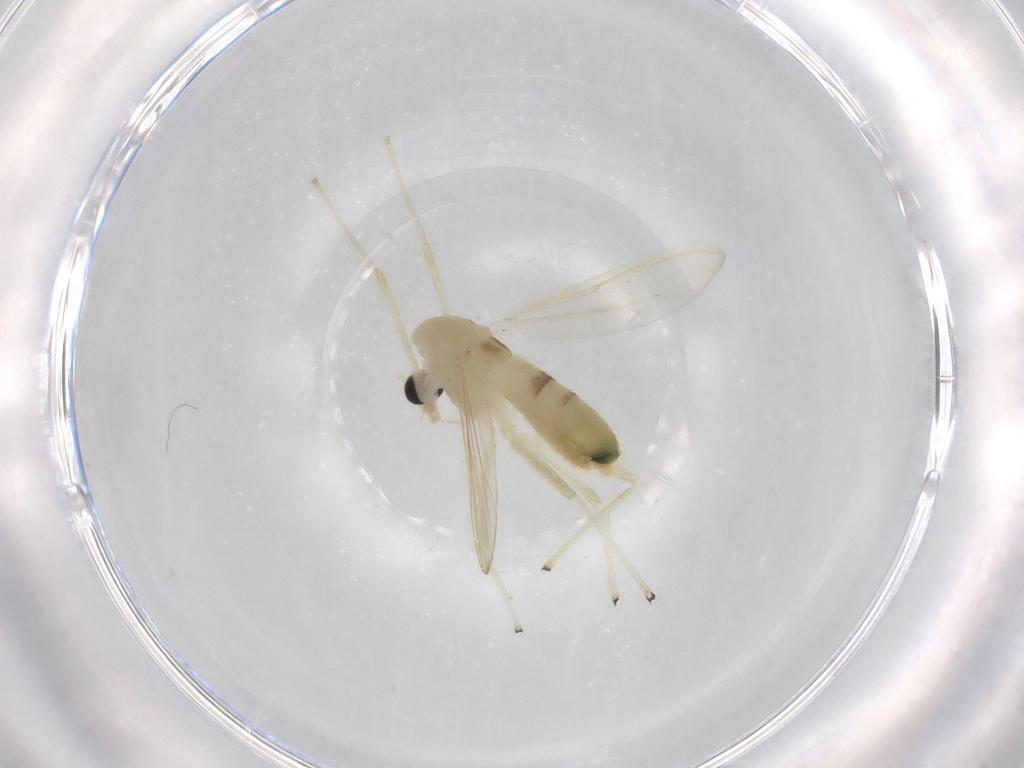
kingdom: Animalia
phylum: Arthropoda
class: Insecta
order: Diptera
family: Chironomidae
